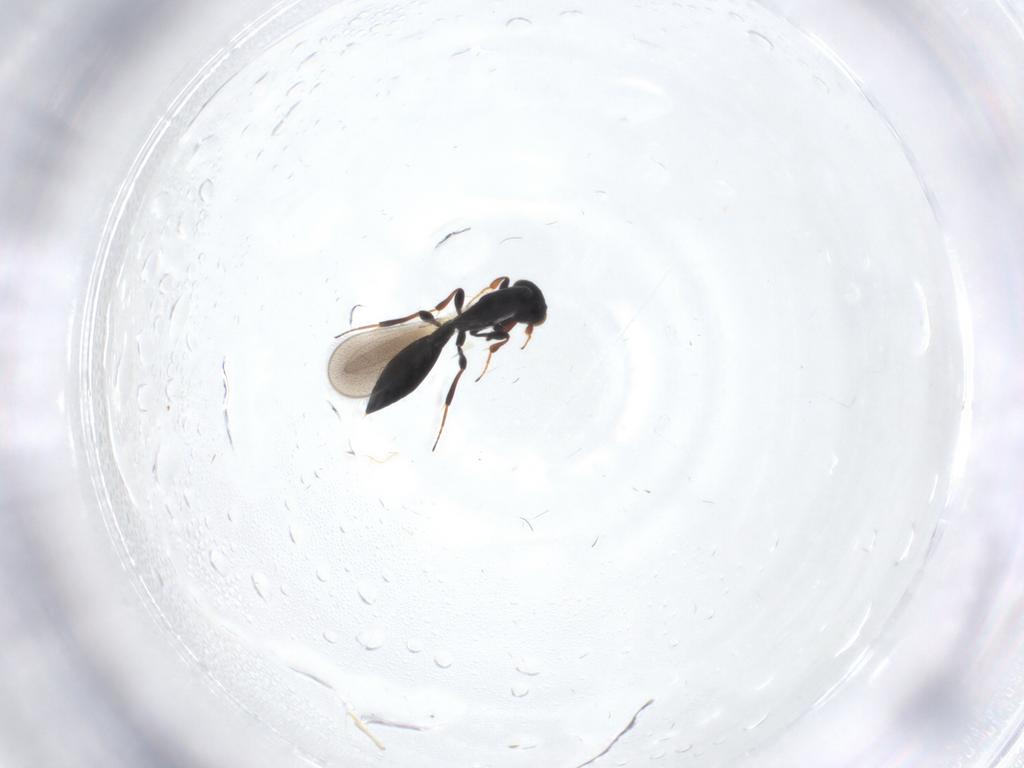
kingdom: Animalia
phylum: Arthropoda
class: Insecta
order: Hymenoptera
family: Platygastridae
